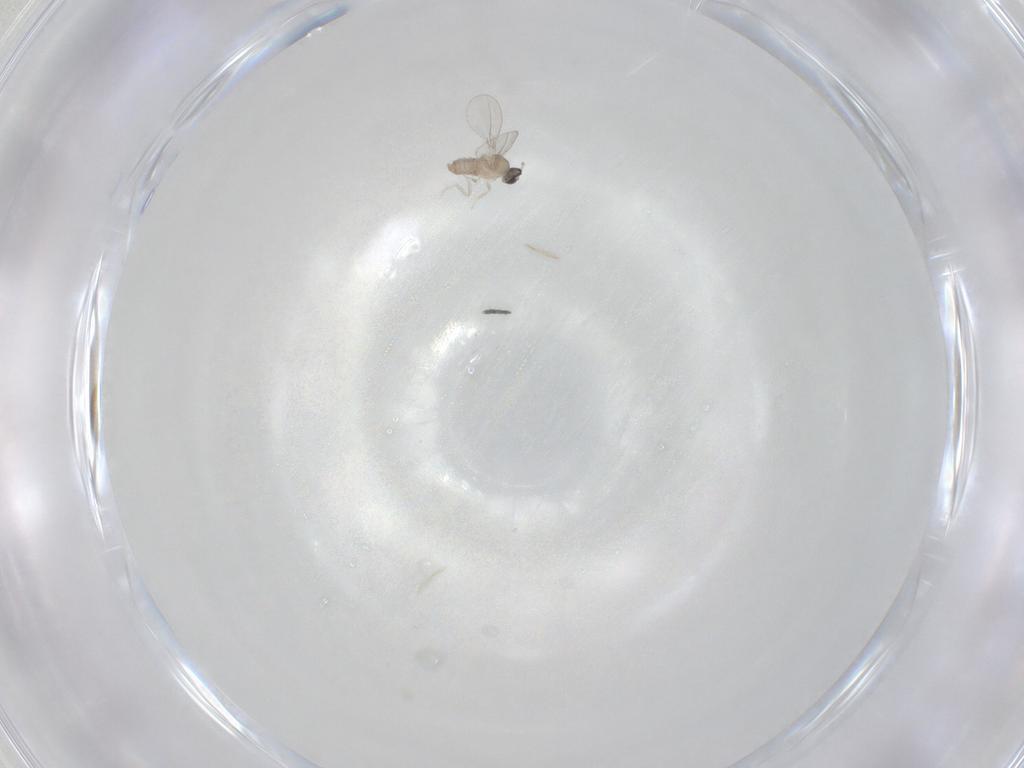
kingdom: Animalia
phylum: Arthropoda
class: Insecta
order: Diptera
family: Cecidomyiidae
